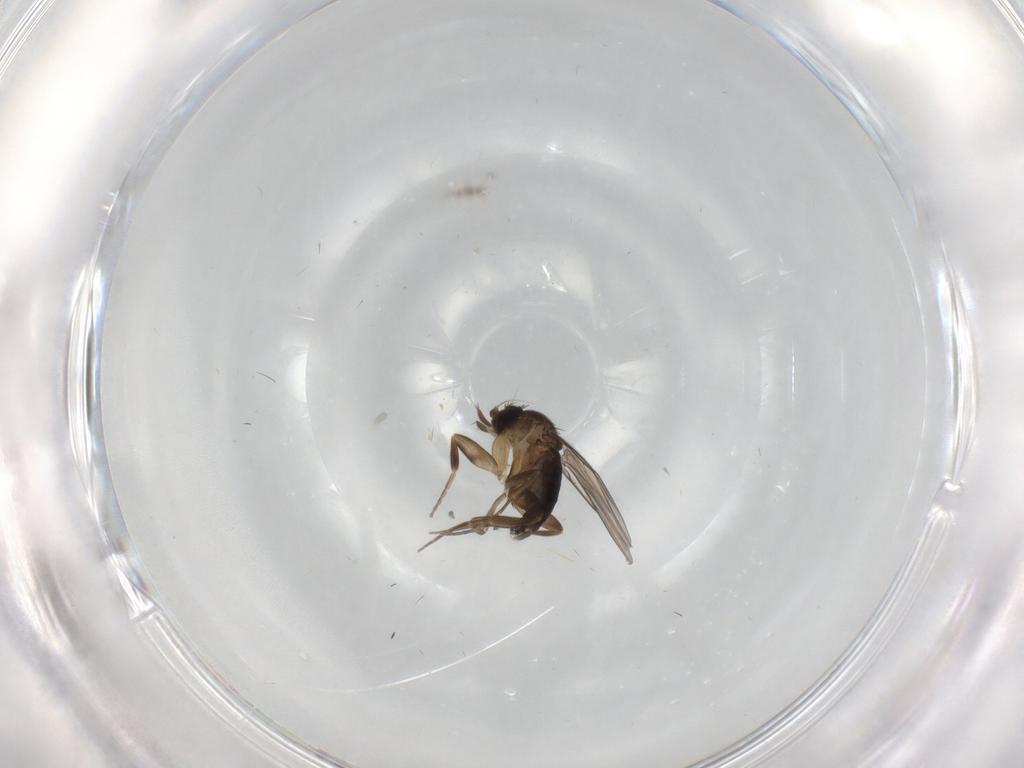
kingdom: Animalia
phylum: Arthropoda
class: Insecta
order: Diptera
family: Phoridae
